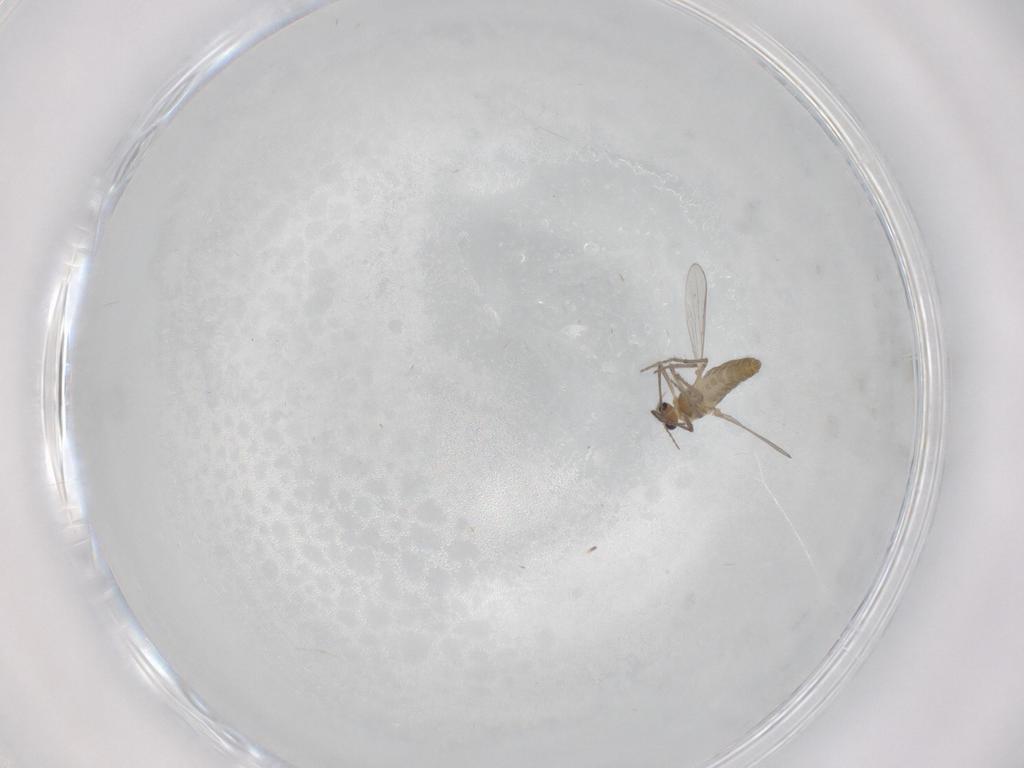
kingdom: Animalia
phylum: Arthropoda
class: Insecta
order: Diptera
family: Chironomidae
